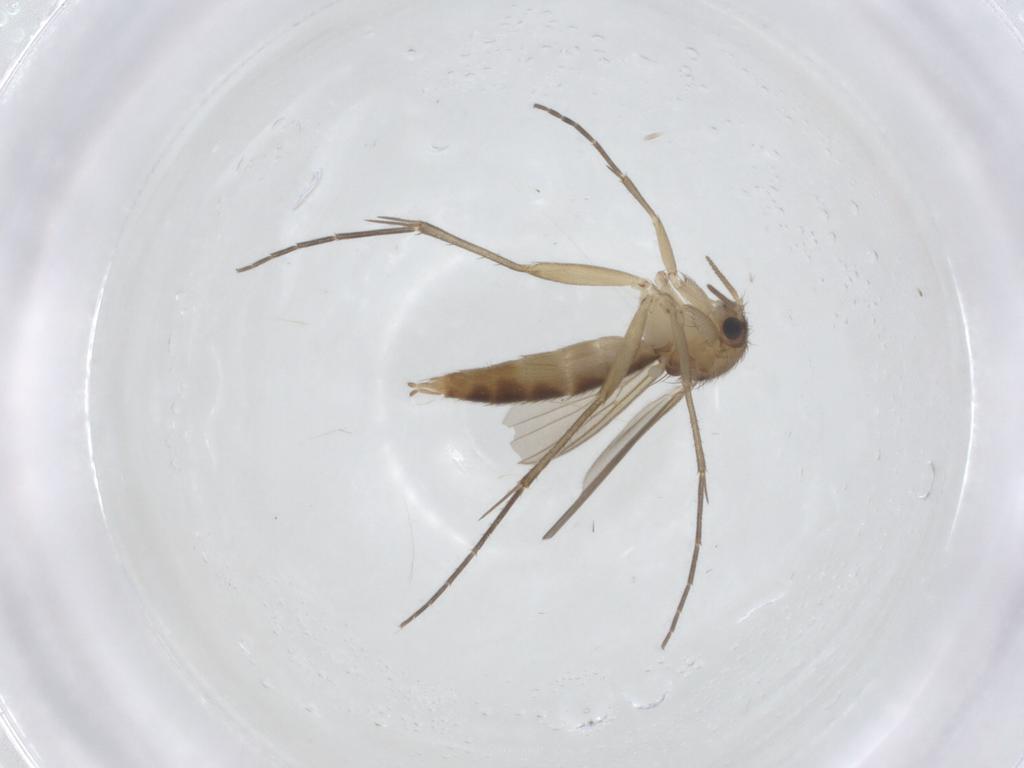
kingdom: Animalia
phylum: Arthropoda
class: Insecta
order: Diptera
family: Mycetophilidae
